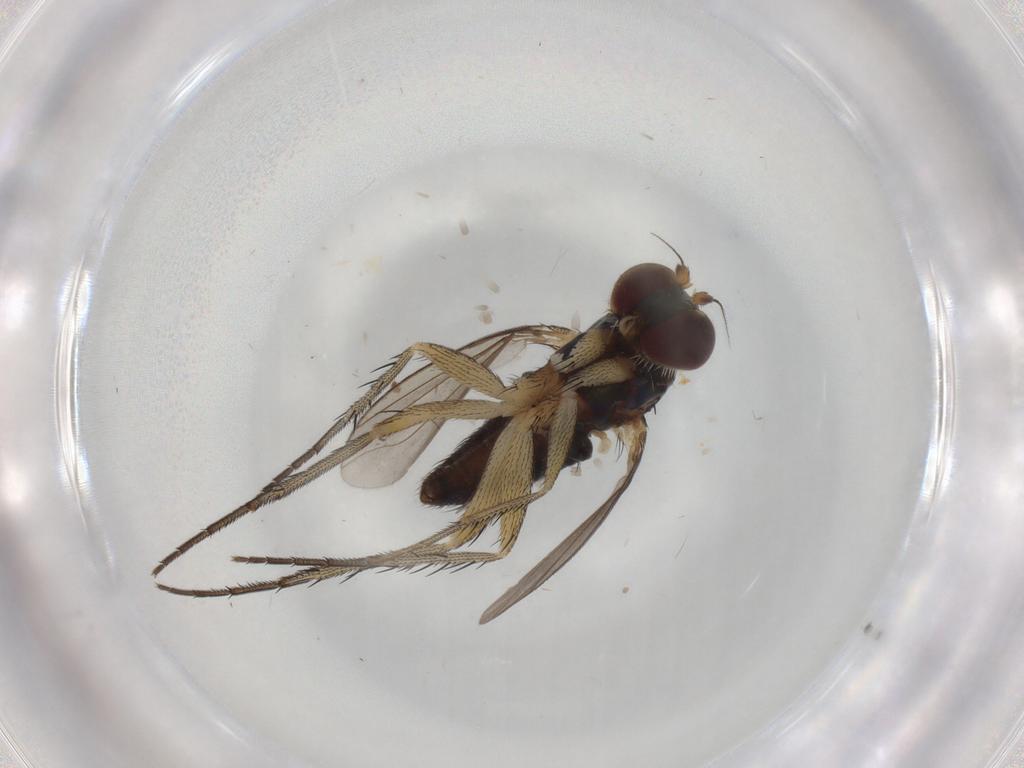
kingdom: Animalia
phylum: Arthropoda
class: Insecta
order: Diptera
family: Dolichopodidae
